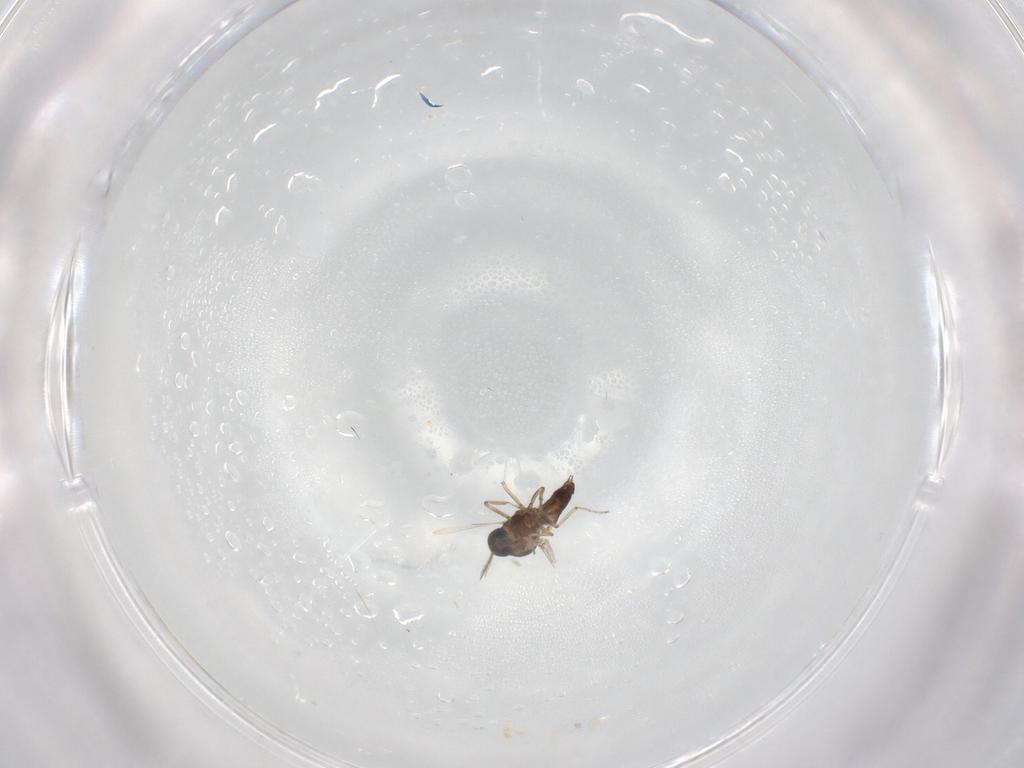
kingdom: Animalia
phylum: Arthropoda
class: Insecta
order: Diptera
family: Ceratopogonidae
